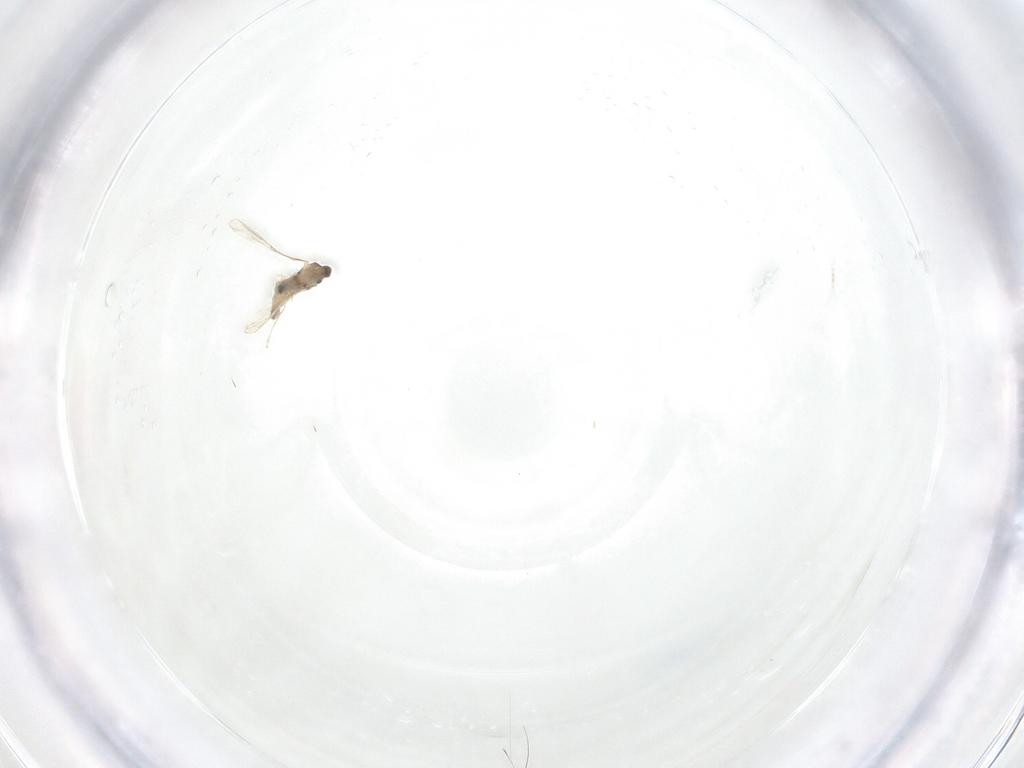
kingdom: Animalia
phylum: Arthropoda
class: Insecta
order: Diptera
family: Cecidomyiidae
